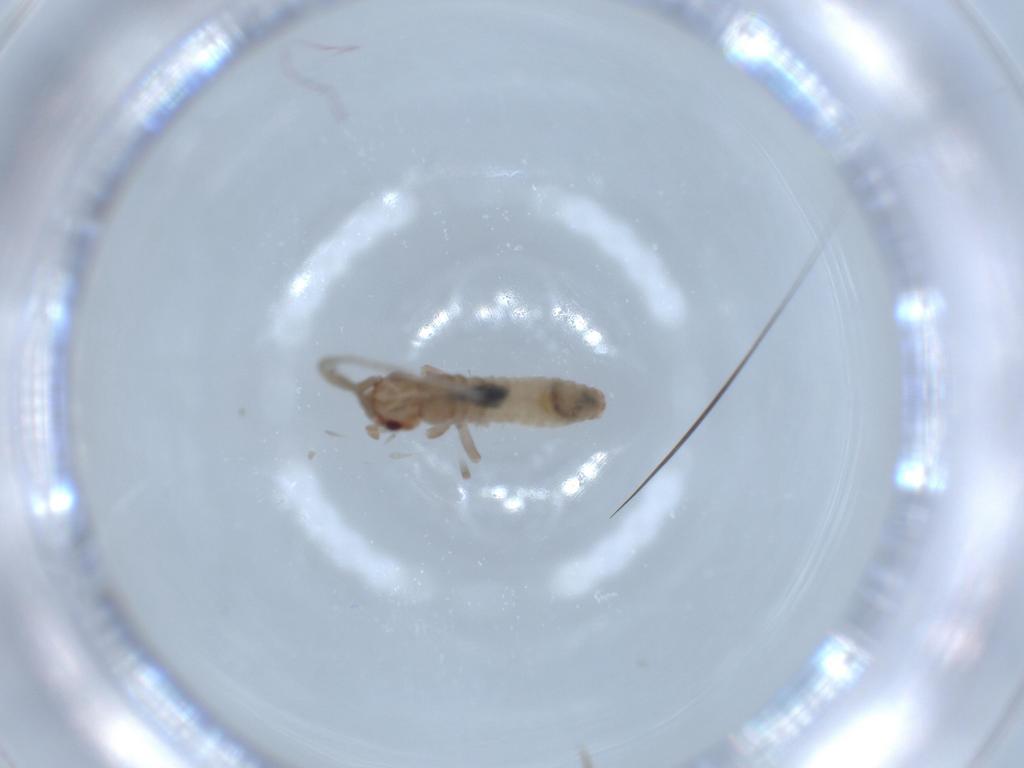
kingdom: Animalia
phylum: Arthropoda
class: Insecta
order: Orthoptera
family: Mogoplistidae
